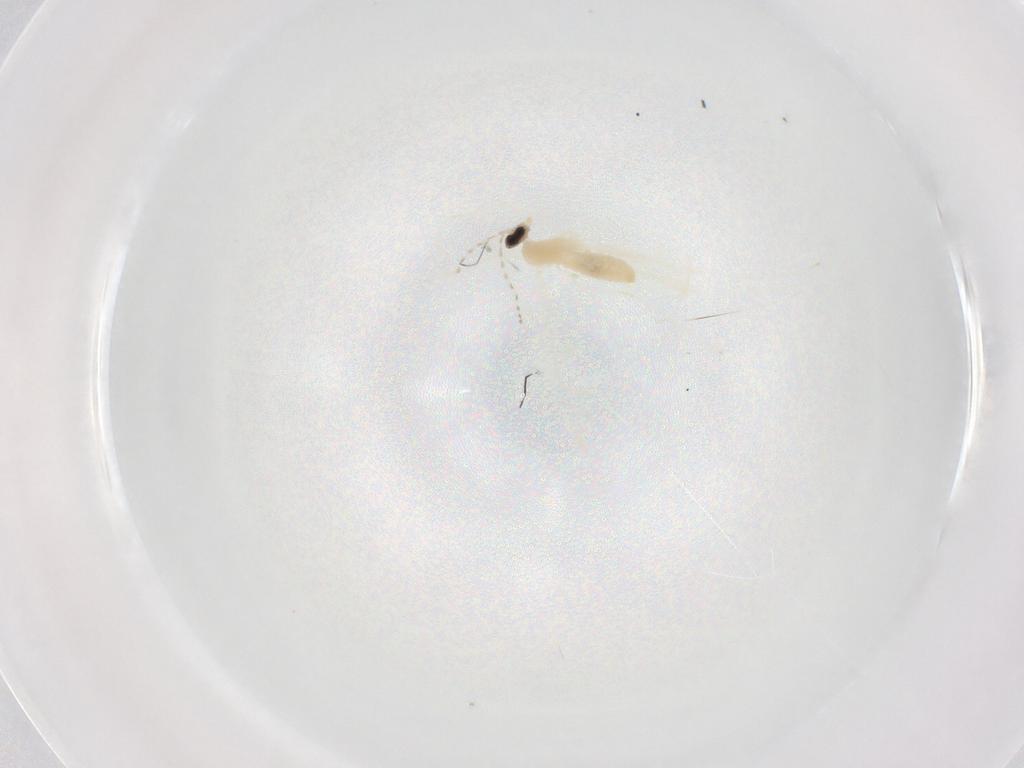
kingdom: Animalia
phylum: Arthropoda
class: Insecta
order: Diptera
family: Cecidomyiidae
